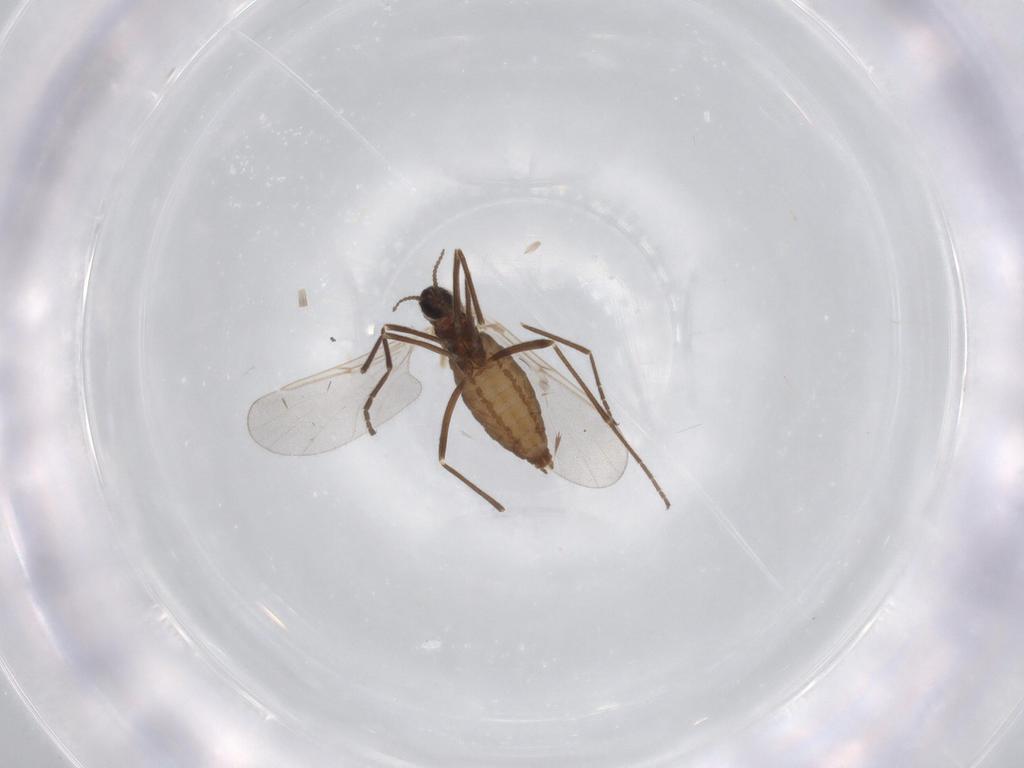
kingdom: Animalia
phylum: Arthropoda
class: Insecta
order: Diptera
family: Cecidomyiidae
